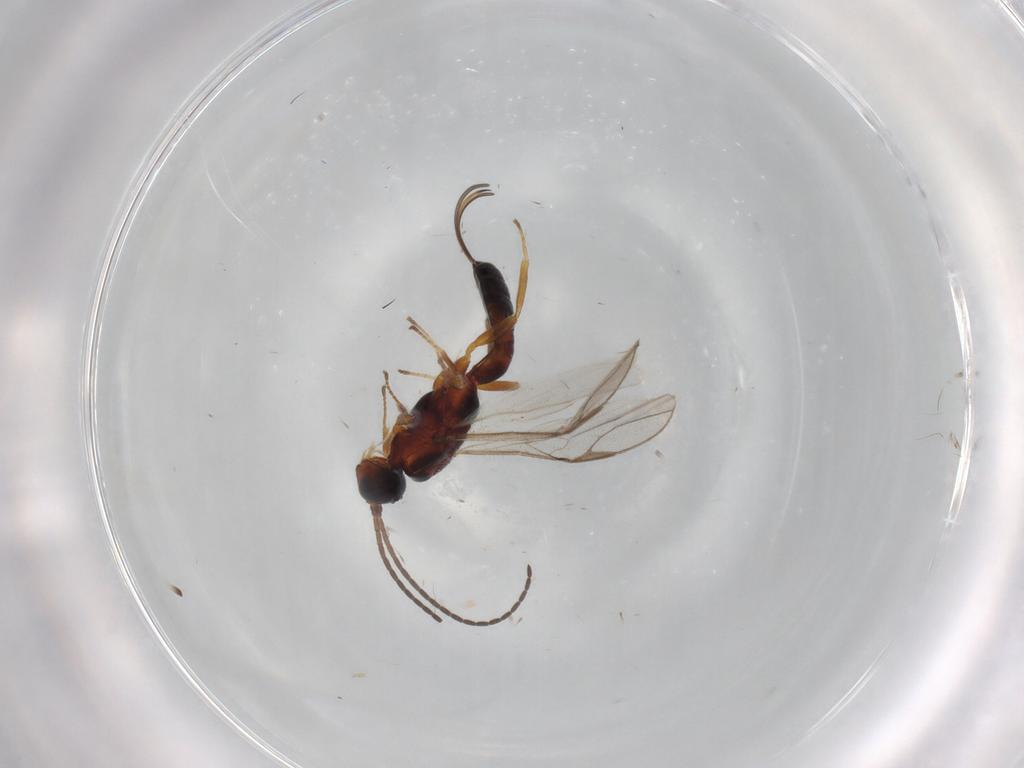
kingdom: Animalia
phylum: Arthropoda
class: Insecta
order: Hymenoptera
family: Braconidae
